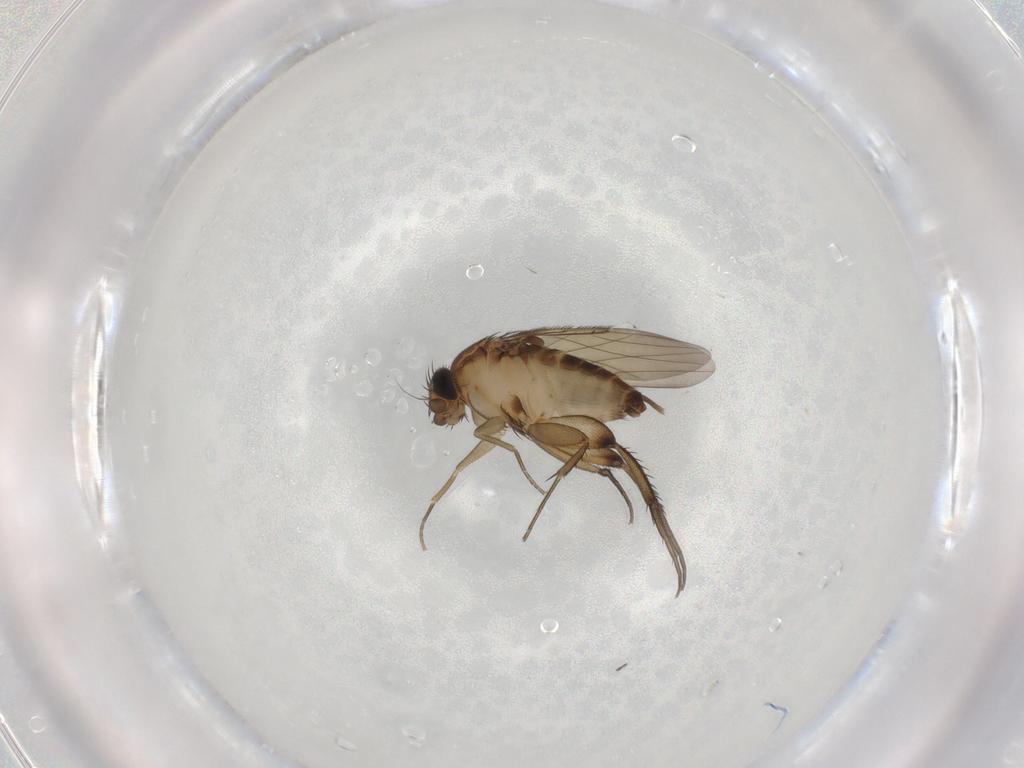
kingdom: Animalia
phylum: Arthropoda
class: Insecta
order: Diptera
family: Phoridae
